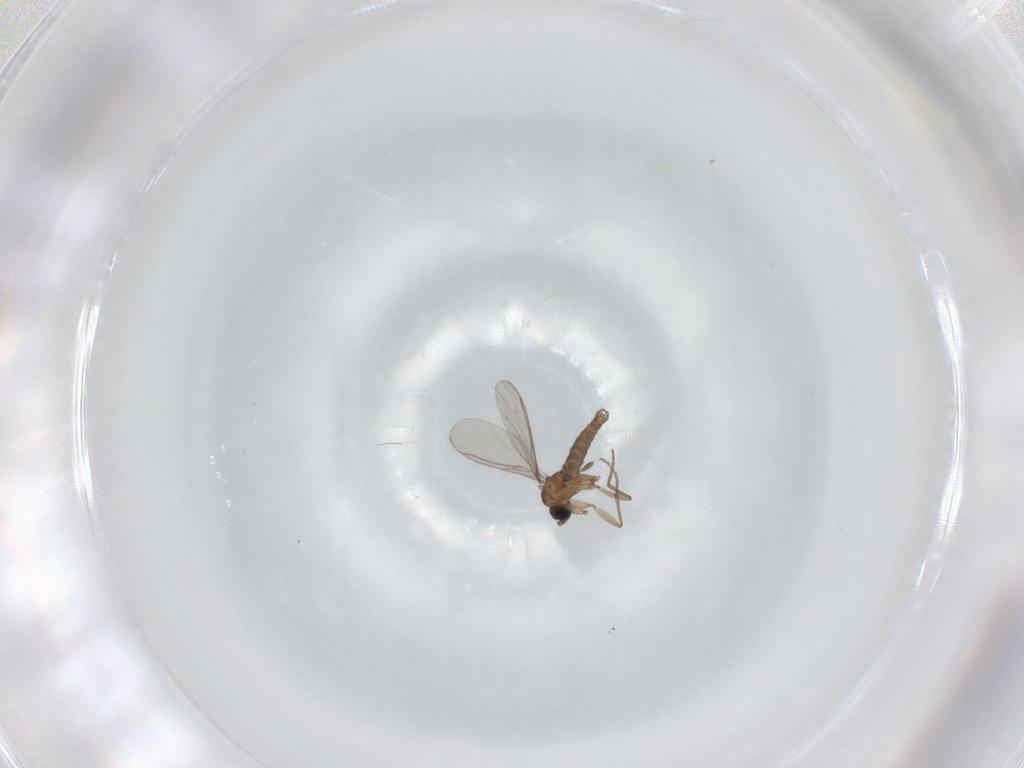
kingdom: Animalia
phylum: Arthropoda
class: Insecta
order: Diptera
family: Sciaridae
